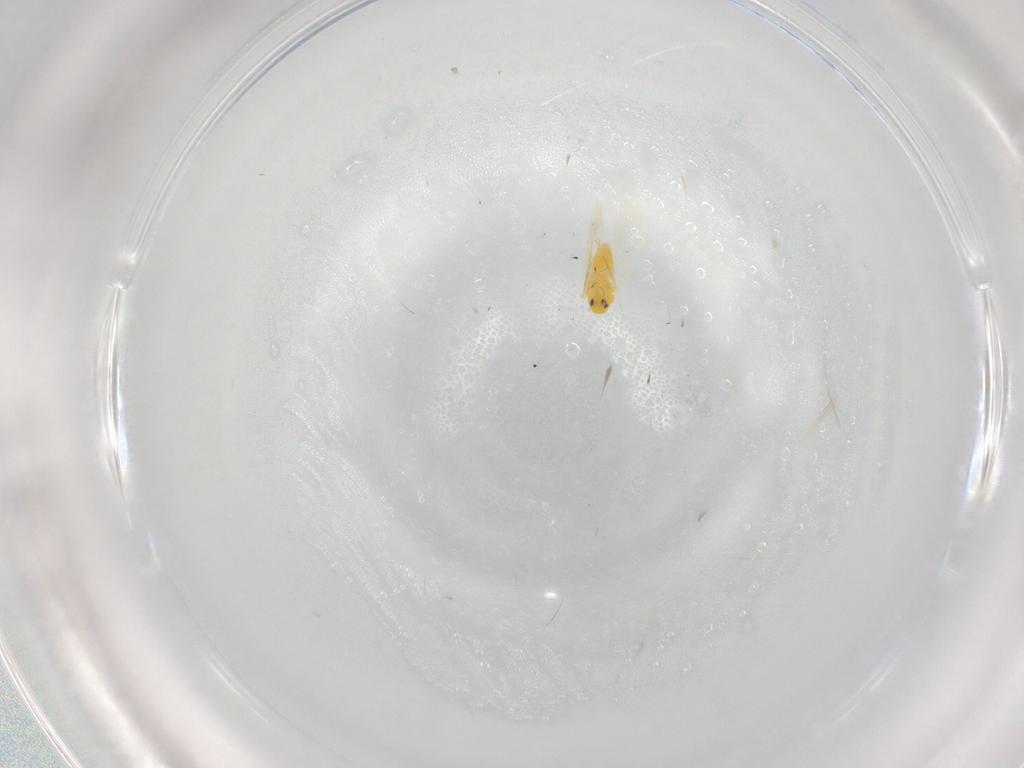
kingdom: Animalia
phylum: Arthropoda
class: Insecta
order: Hemiptera
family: Aleyrodidae
